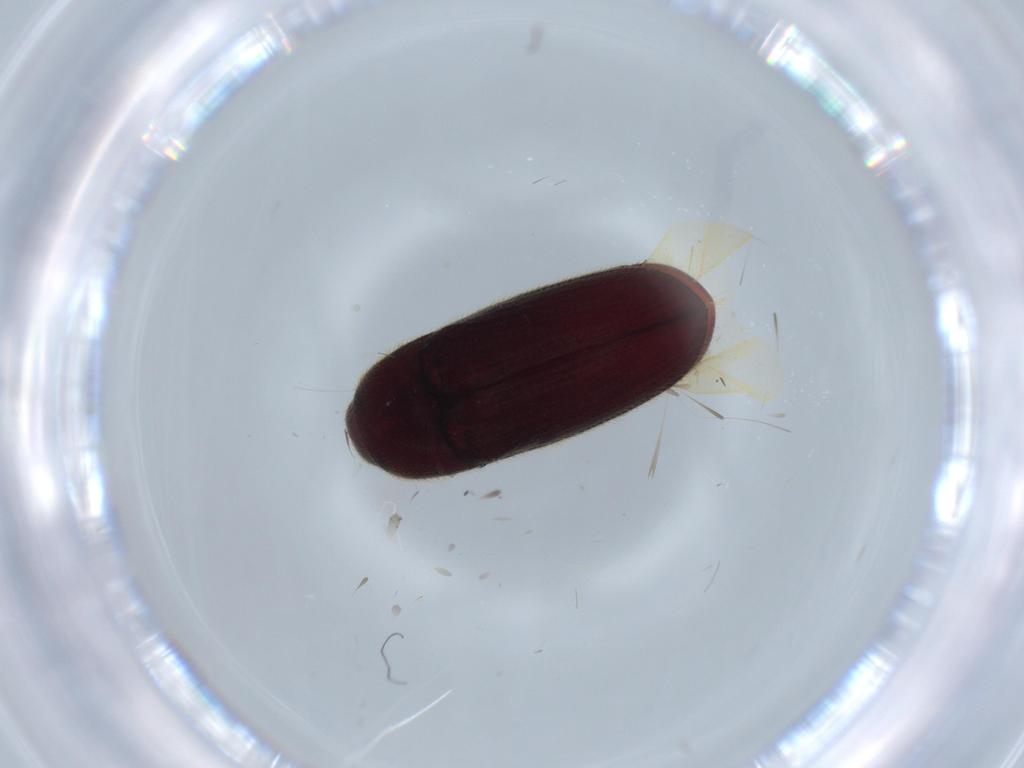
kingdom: Animalia
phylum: Arthropoda
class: Insecta
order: Coleoptera
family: Throscidae
